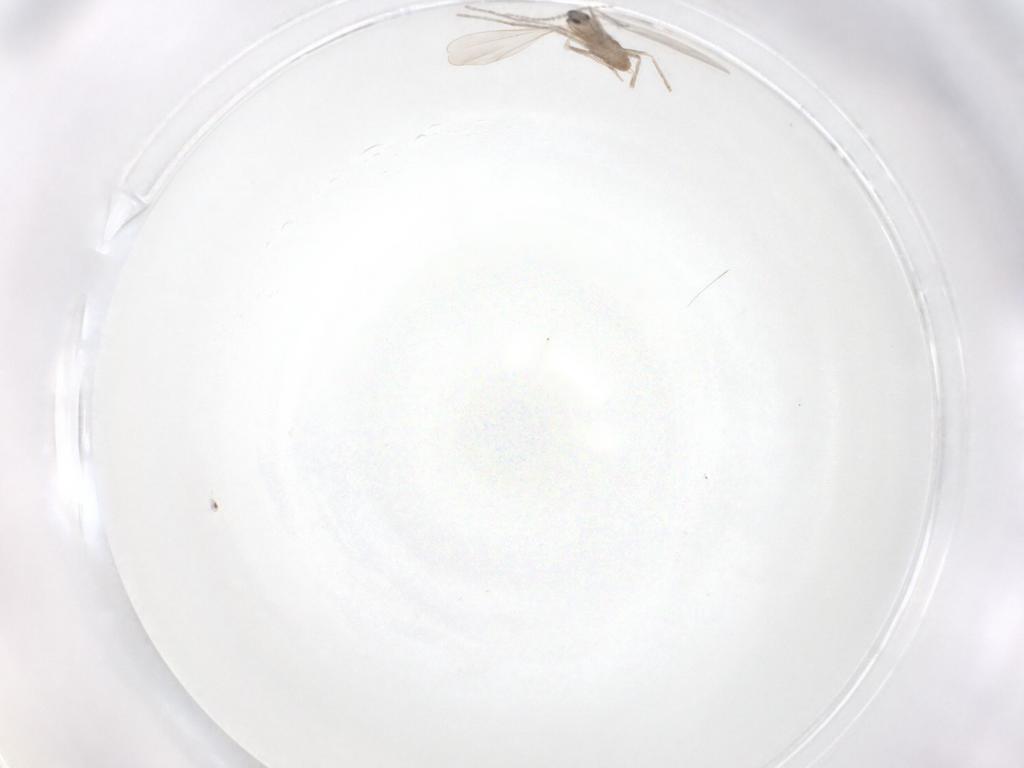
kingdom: Animalia
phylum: Arthropoda
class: Insecta
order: Diptera
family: Cecidomyiidae
